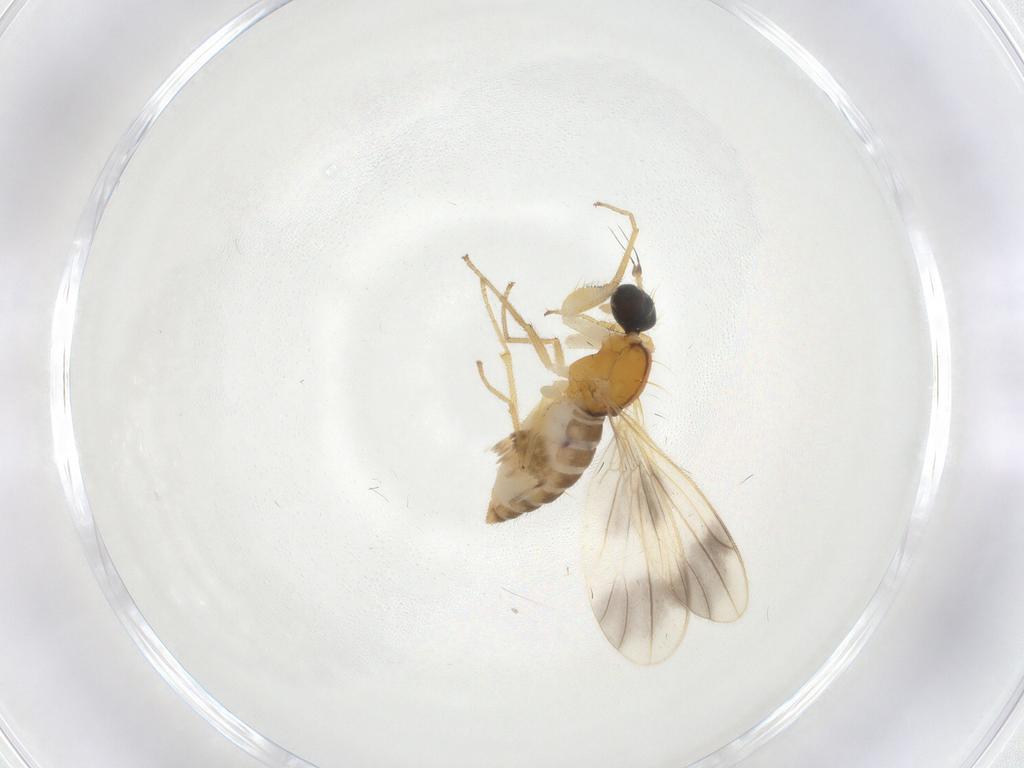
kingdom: Animalia
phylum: Arthropoda
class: Insecta
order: Diptera
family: Empididae
